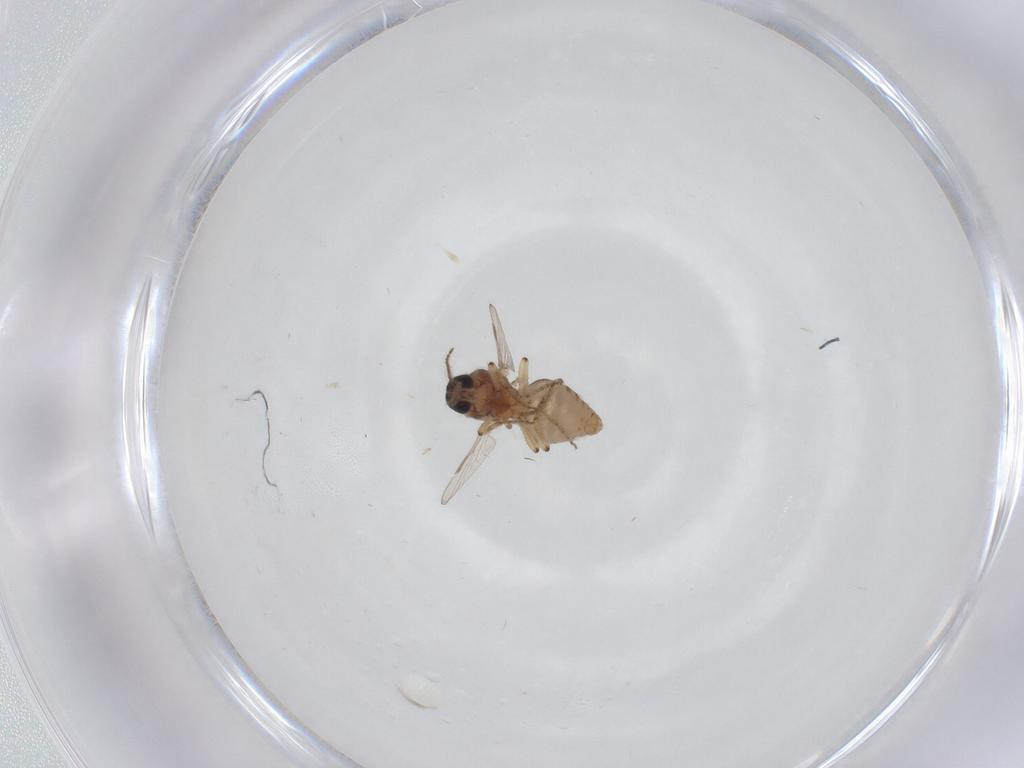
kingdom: Animalia
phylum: Arthropoda
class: Insecta
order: Diptera
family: Ceratopogonidae
